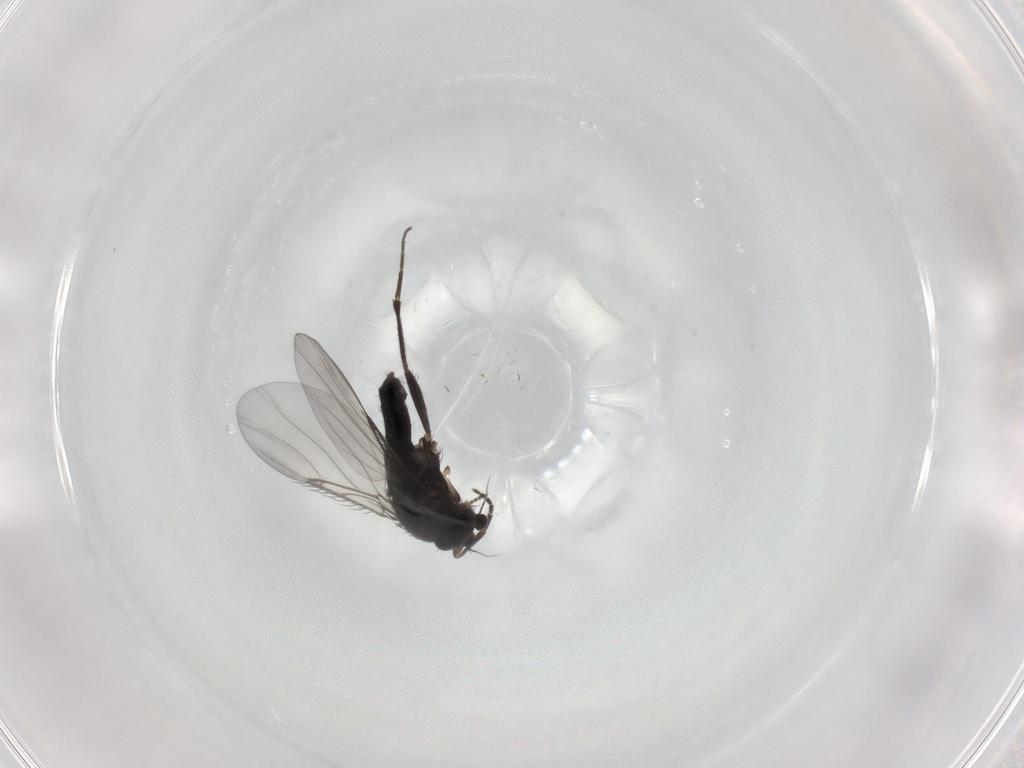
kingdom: Animalia
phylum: Arthropoda
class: Insecta
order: Diptera
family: Phoridae
